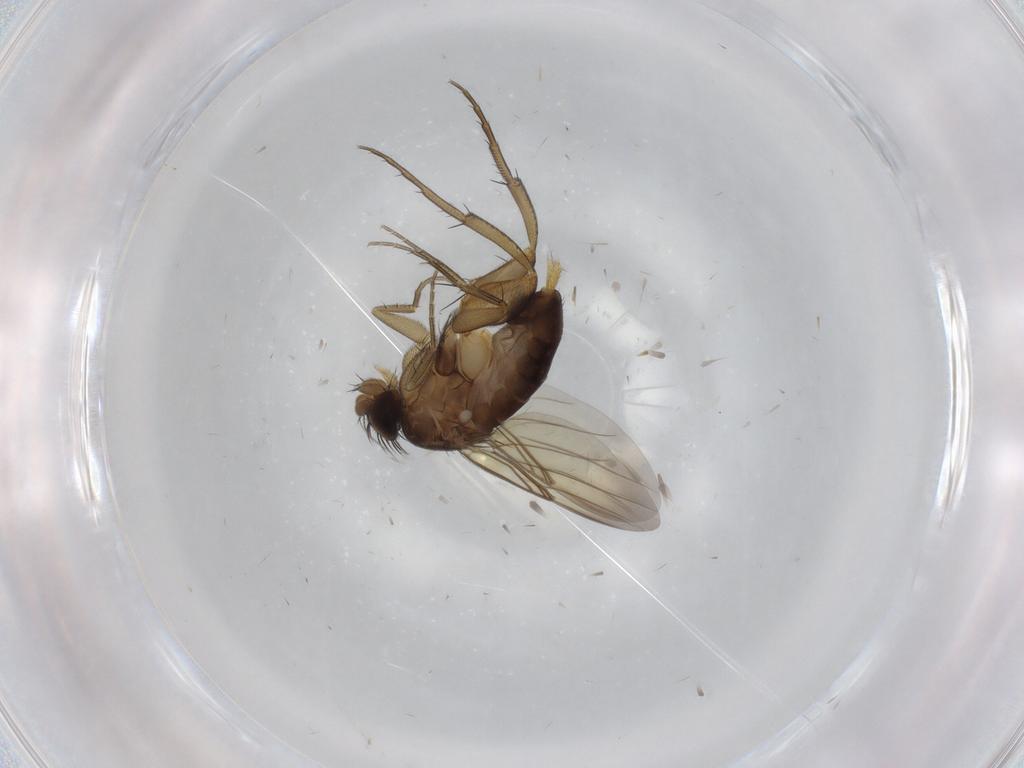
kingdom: Animalia
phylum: Arthropoda
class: Insecta
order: Diptera
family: Phoridae
